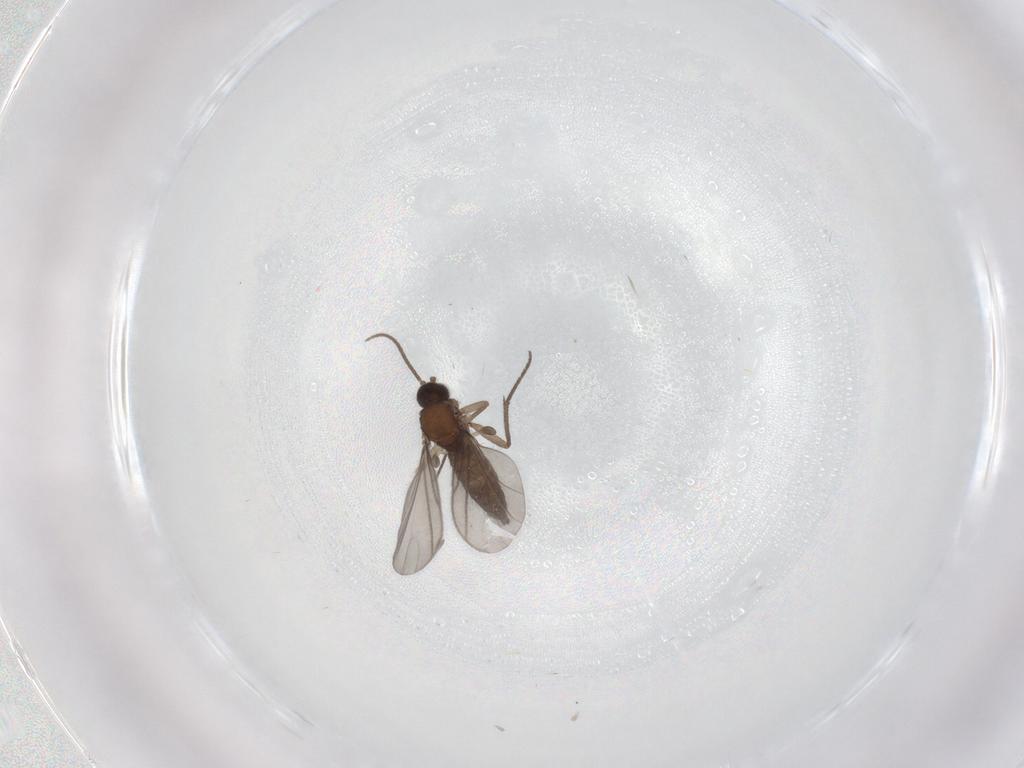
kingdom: Animalia
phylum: Arthropoda
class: Insecta
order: Diptera
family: Sciaridae
